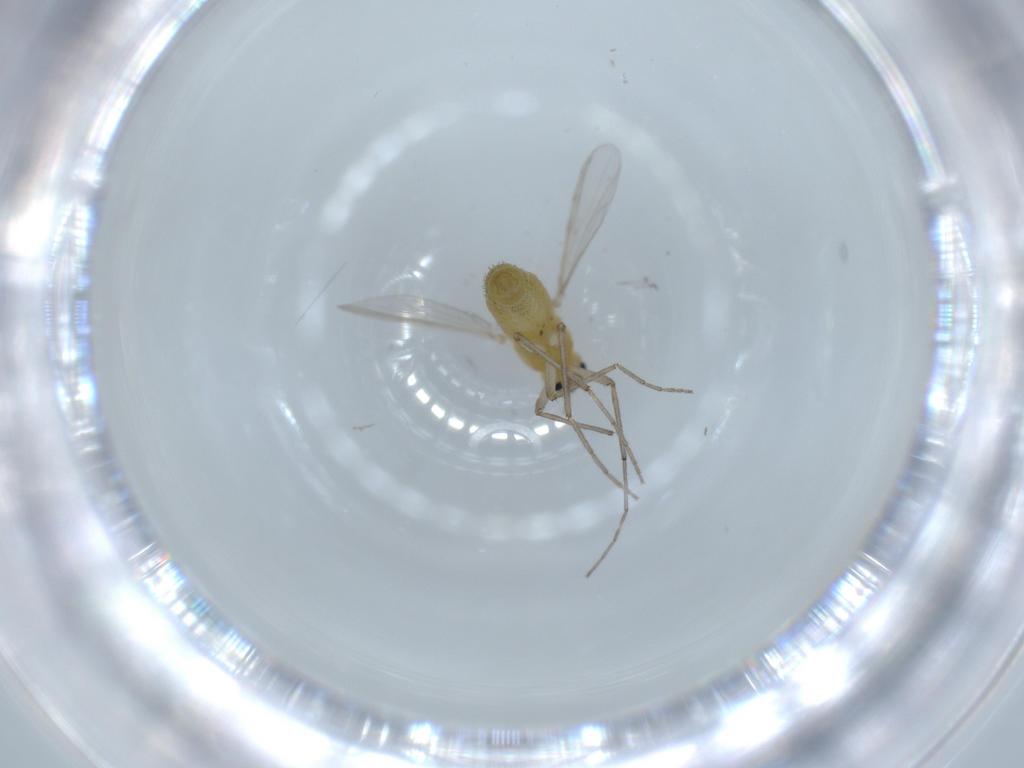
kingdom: Animalia
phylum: Arthropoda
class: Insecta
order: Diptera
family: Chironomidae
